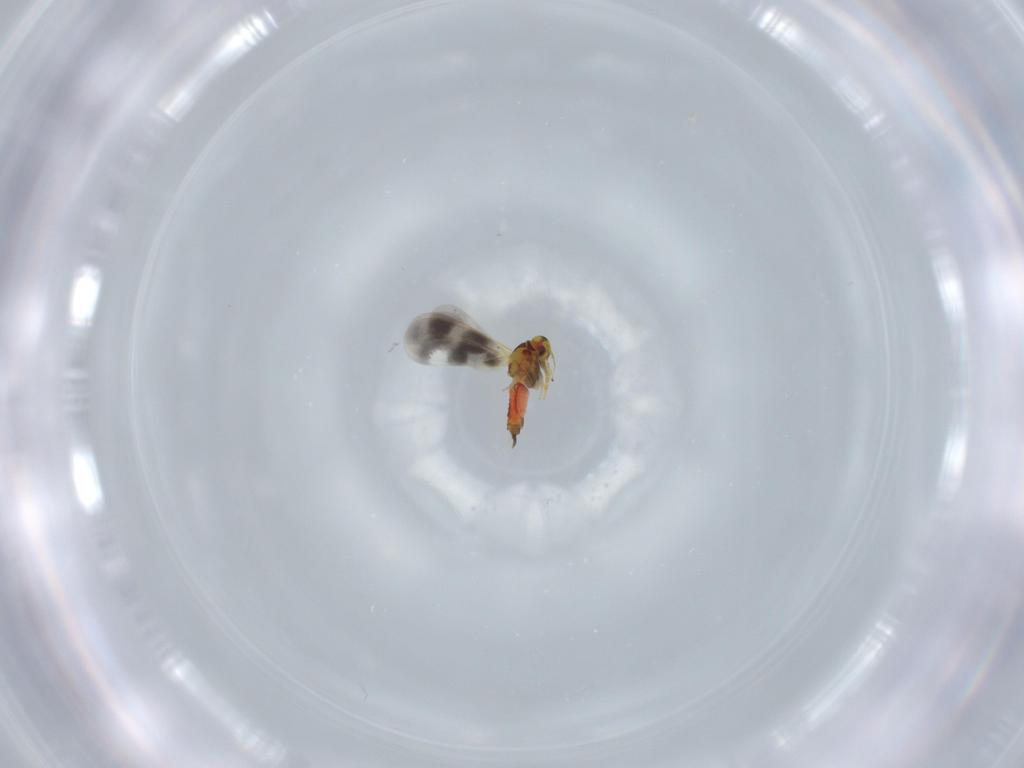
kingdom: Animalia
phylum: Arthropoda
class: Insecta
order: Hemiptera
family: Aleyrodidae
